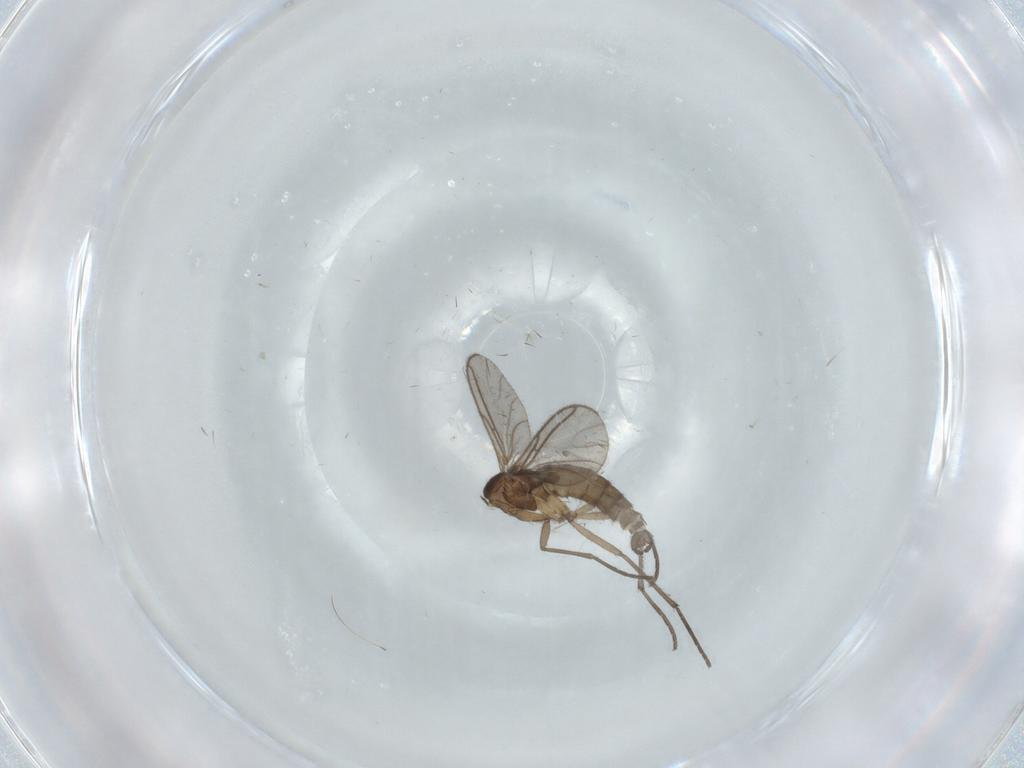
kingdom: Animalia
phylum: Arthropoda
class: Insecta
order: Diptera
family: Sciaridae
